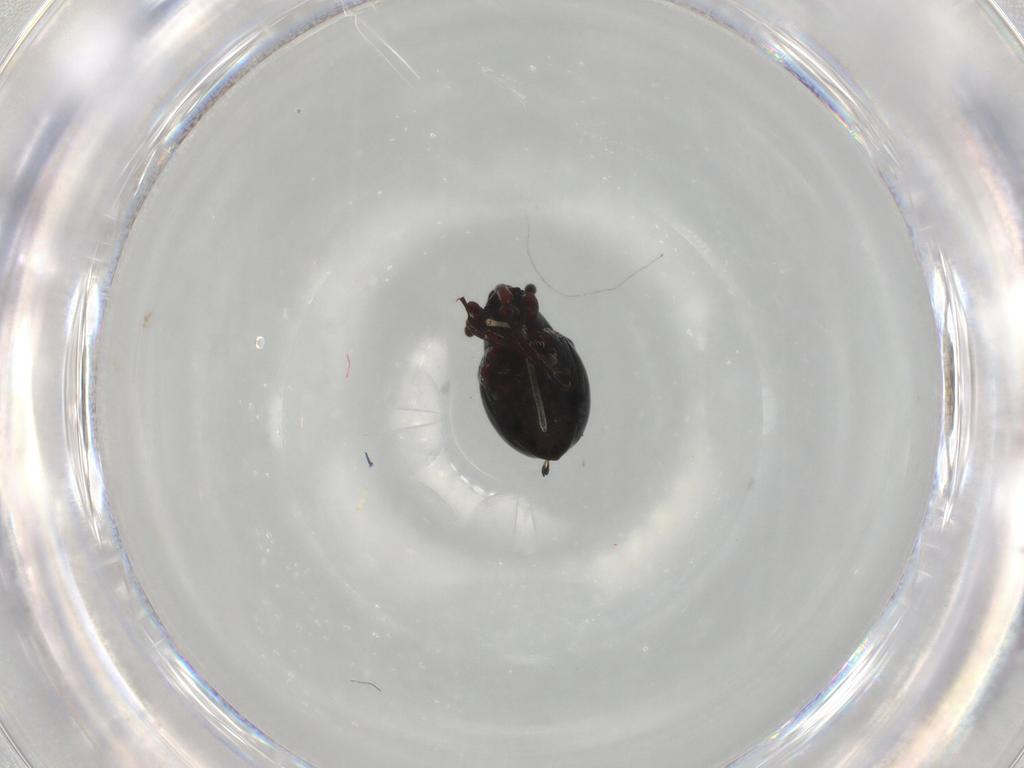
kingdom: Animalia
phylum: Arthropoda
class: Insecta
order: Coleoptera
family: Curculionidae
